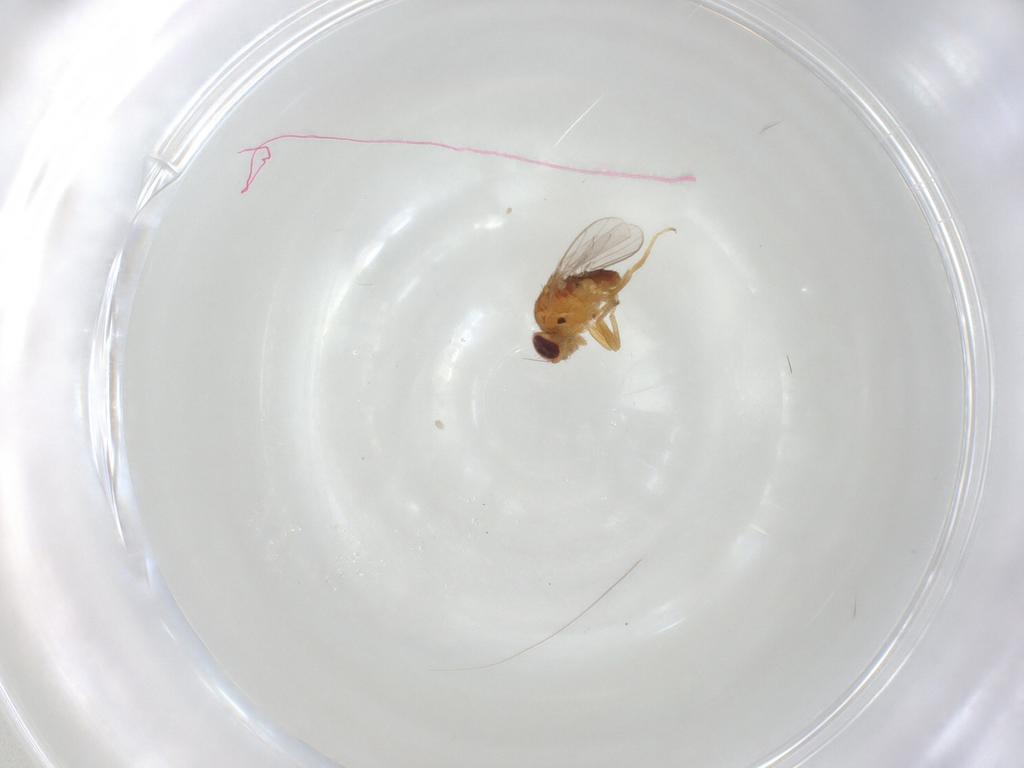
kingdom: Animalia
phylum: Arthropoda
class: Insecta
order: Diptera
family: Chloropidae
